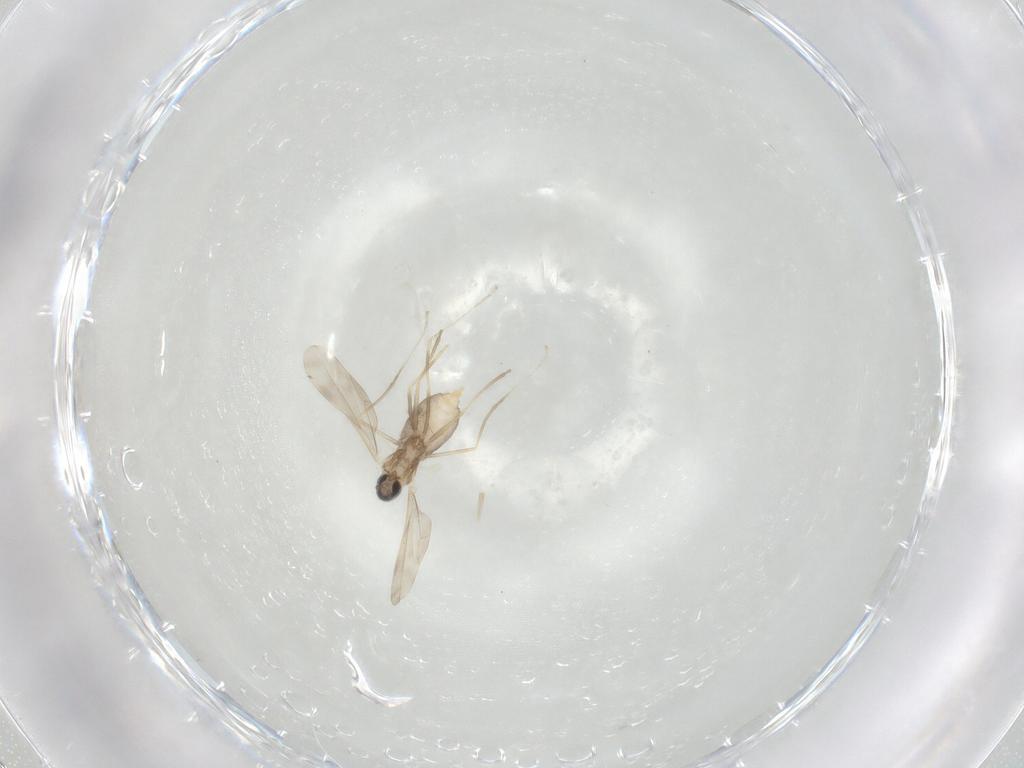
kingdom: Animalia
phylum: Arthropoda
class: Insecta
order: Diptera
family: Cecidomyiidae
